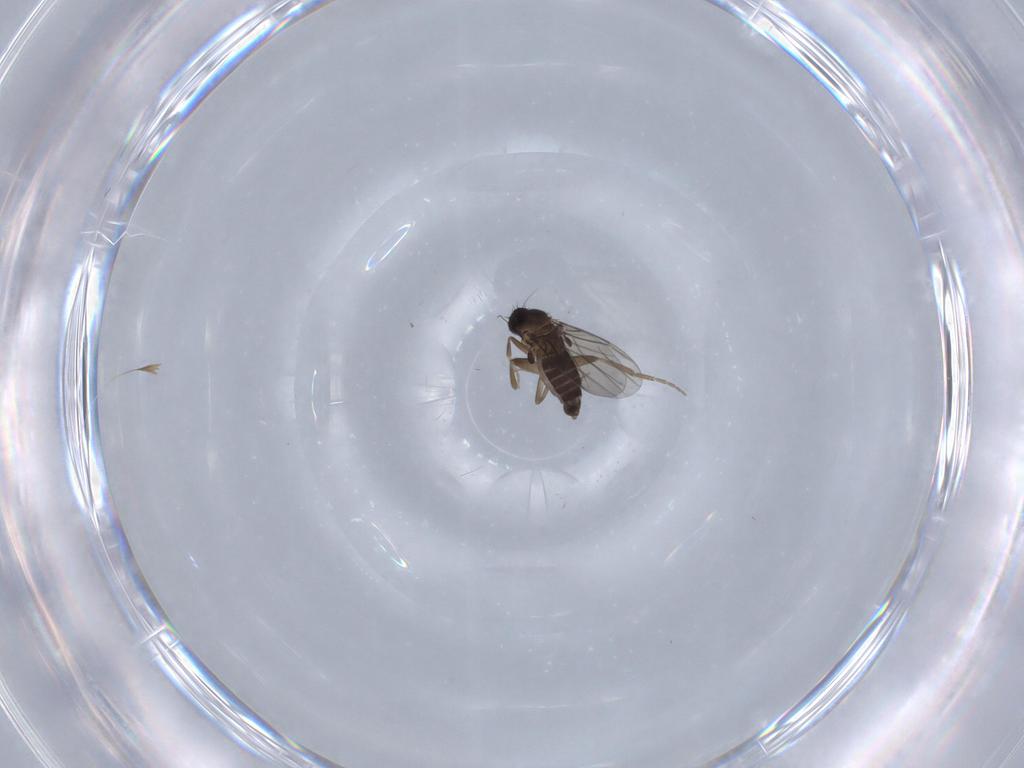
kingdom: Animalia
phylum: Arthropoda
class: Insecta
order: Diptera
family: Phoridae
